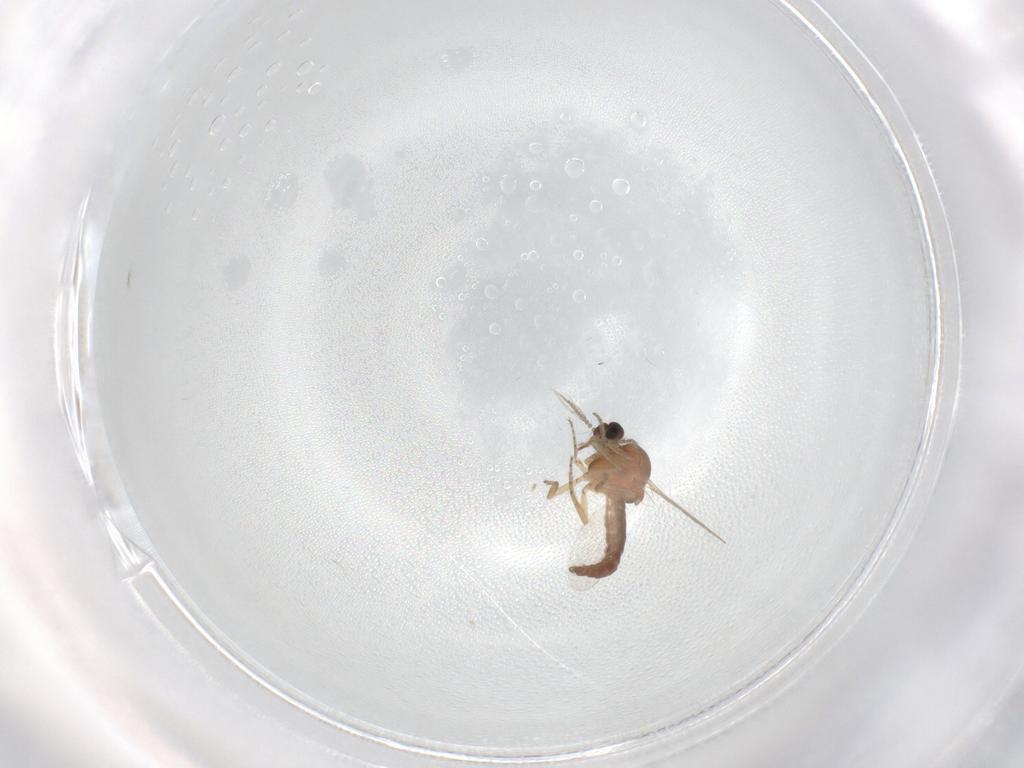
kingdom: Animalia
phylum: Arthropoda
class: Insecta
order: Diptera
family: Ceratopogonidae
